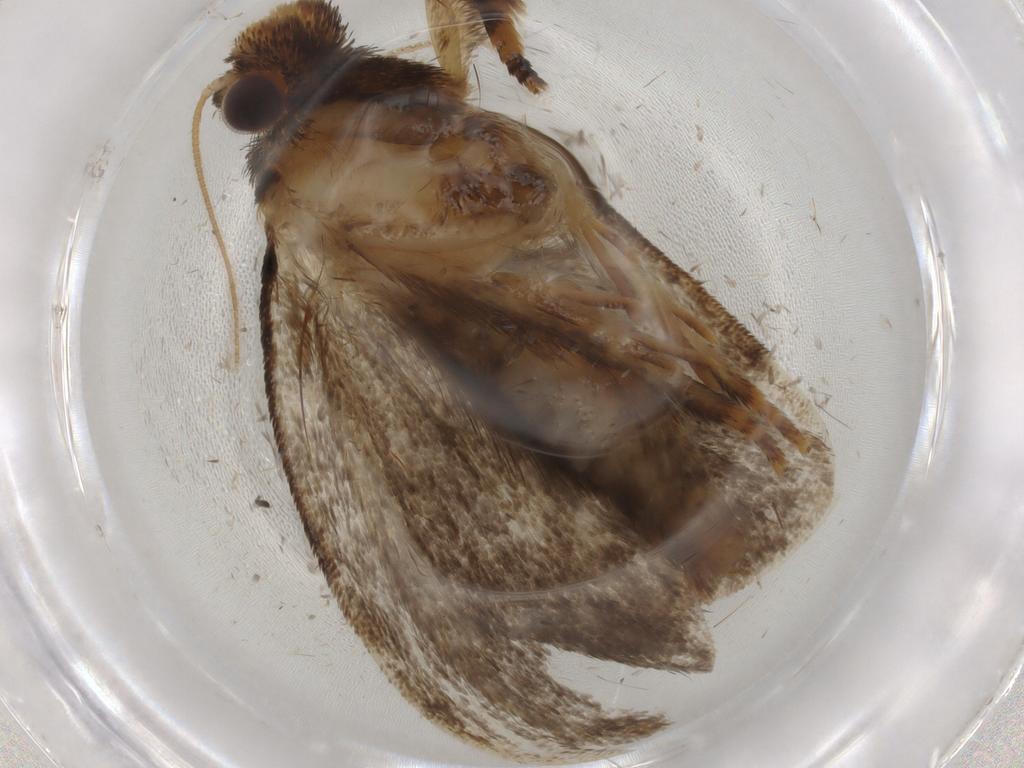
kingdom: Animalia
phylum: Arthropoda
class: Insecta
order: Lepidoptera
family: Tineidae
